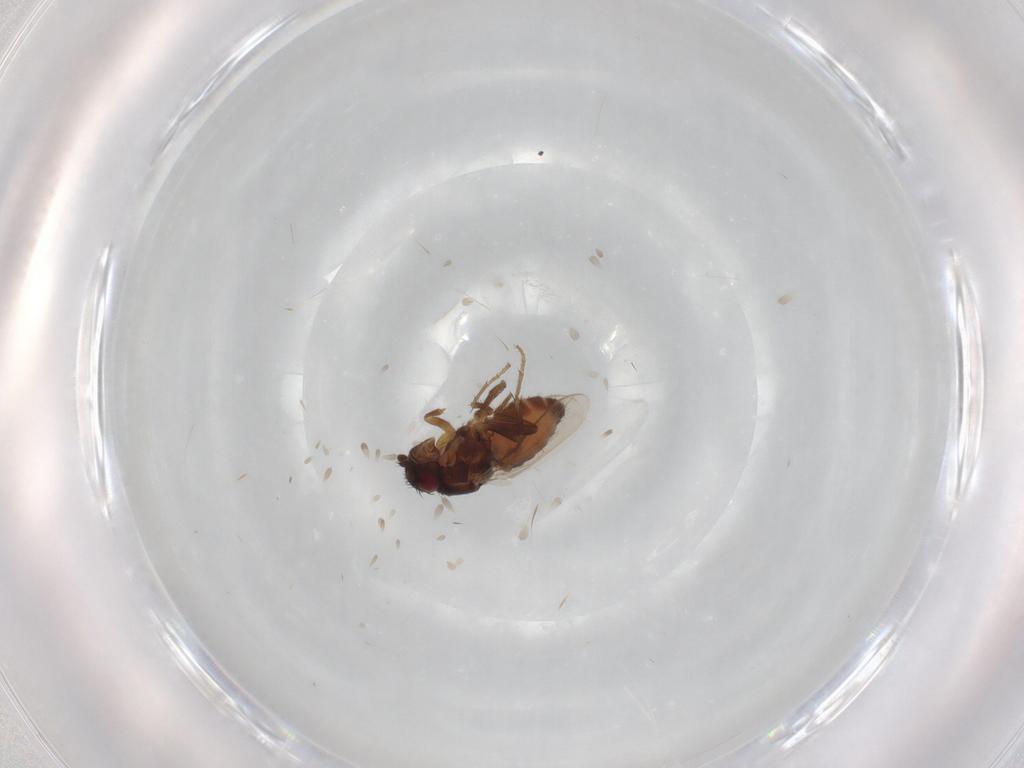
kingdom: Animalia
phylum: Arthropoda
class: Insecta
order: Diptera
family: Sphaeroceridae
